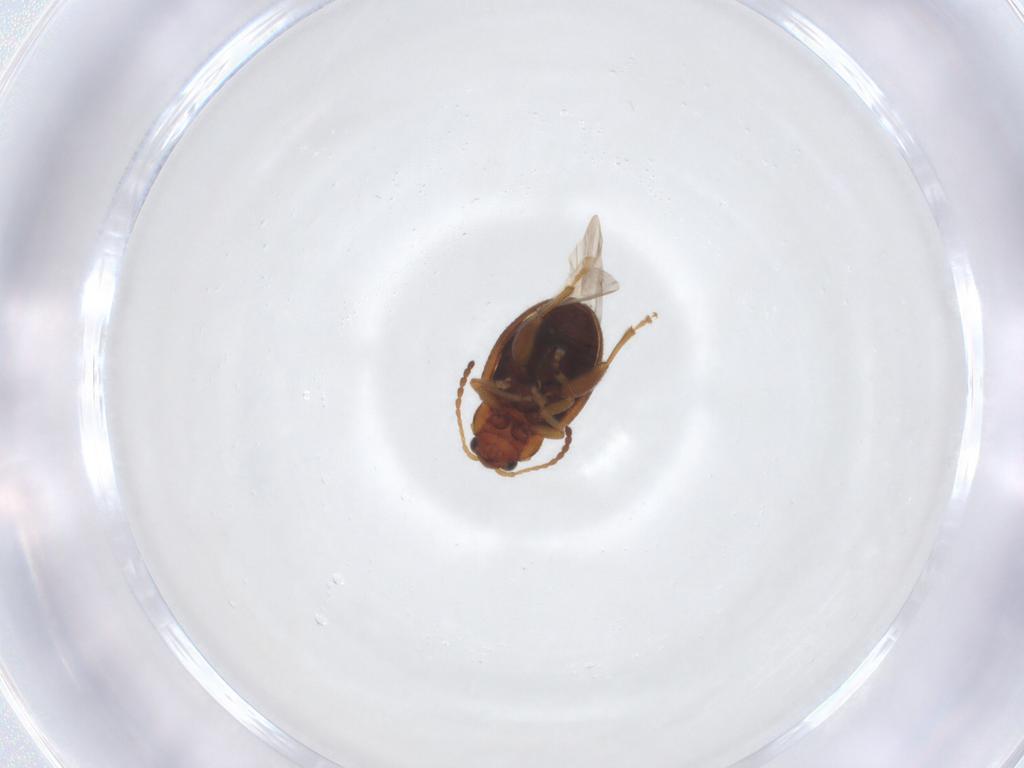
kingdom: Animalia
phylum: Arthropoda
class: Insecta
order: Coleoptera
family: Chrysomelidae
